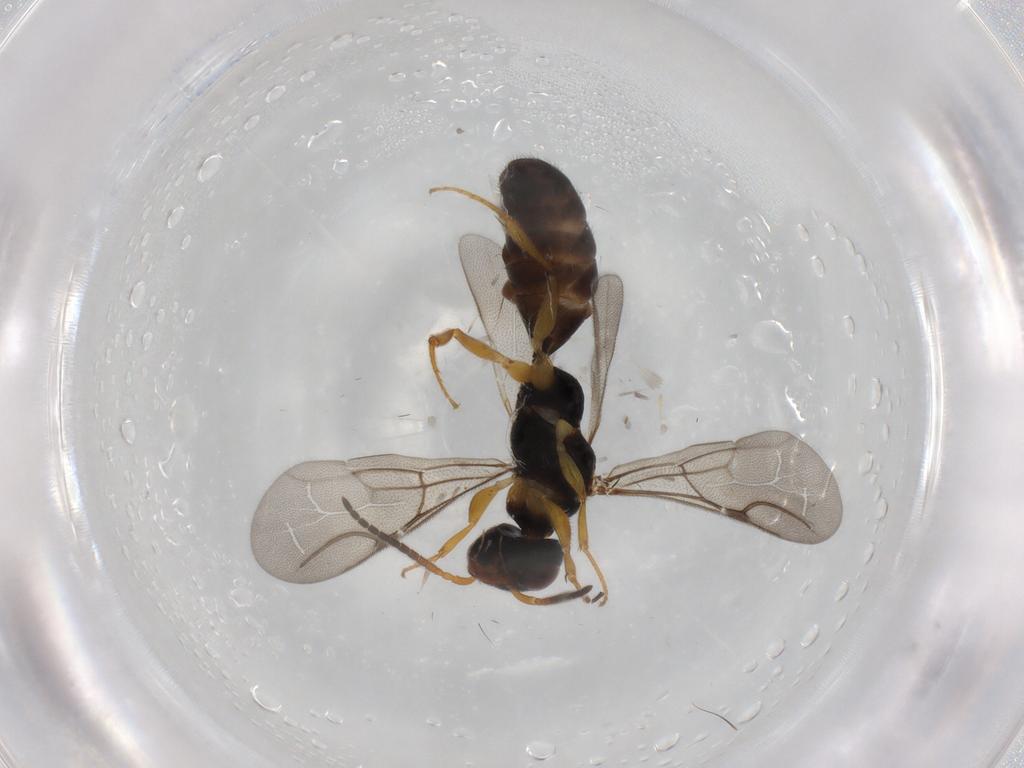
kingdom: Animalia
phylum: Arthropoda
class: Insecta
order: Hymenoptera
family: Bethylidae
